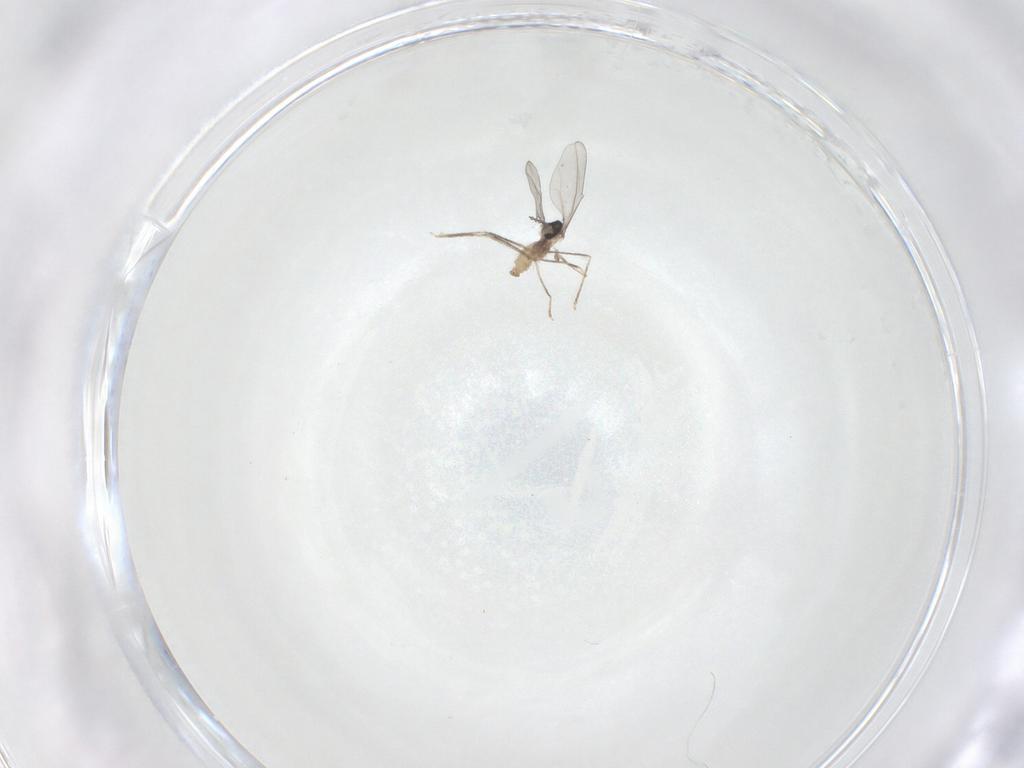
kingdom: Animalia
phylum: Arthropoda
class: Insecta
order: Diptera
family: Cecidomyiidae
